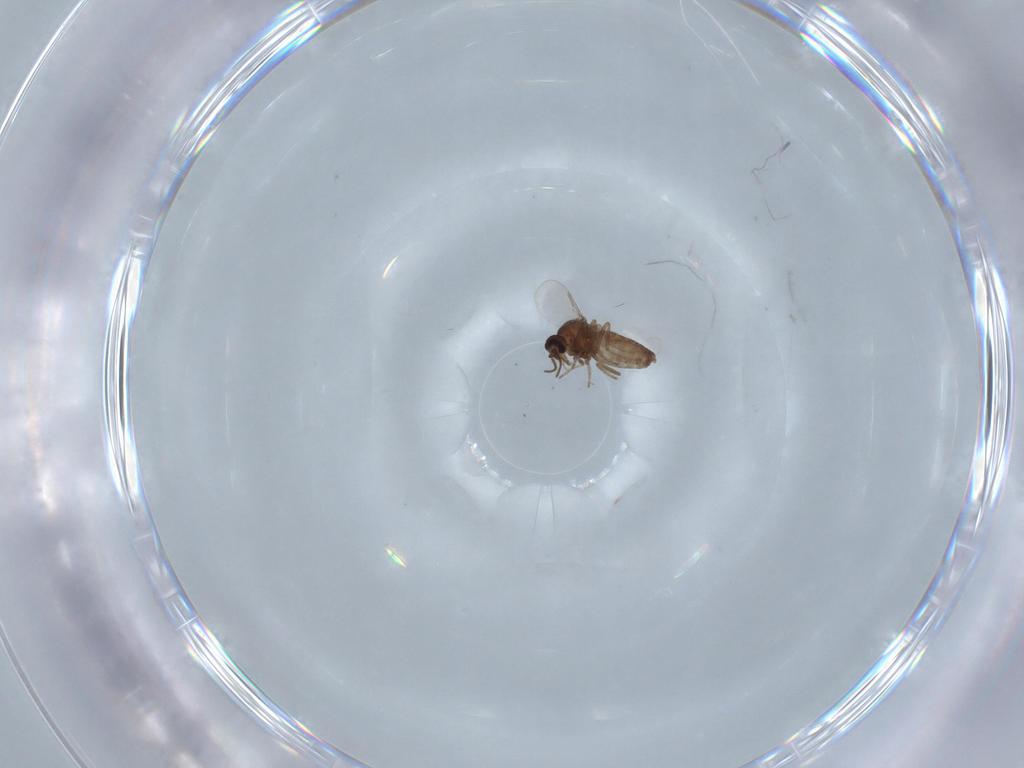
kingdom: Animalia
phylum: Arthropoda
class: Insecta
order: Diptera
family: Ceratopogonidae
